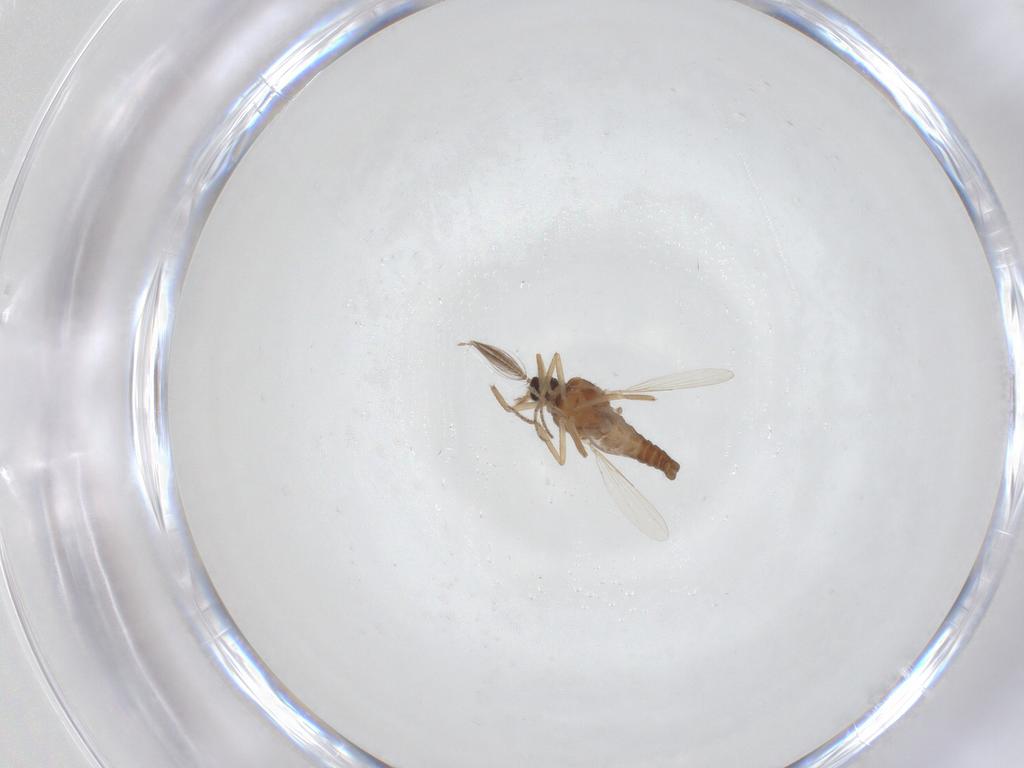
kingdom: Animalia
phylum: Arthropoda
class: Insecta
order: Diptera
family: Ceratopogonidae
